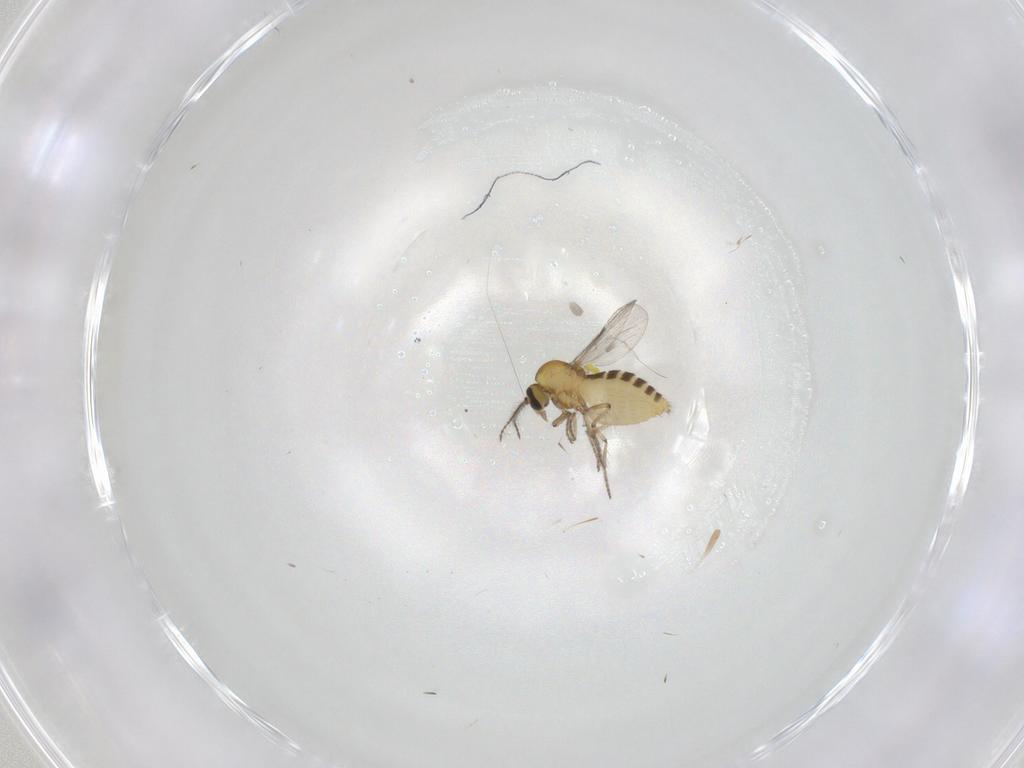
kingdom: Animalia
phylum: Arthropoda
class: Insecta
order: Diptera
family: Ceratopogonidae
